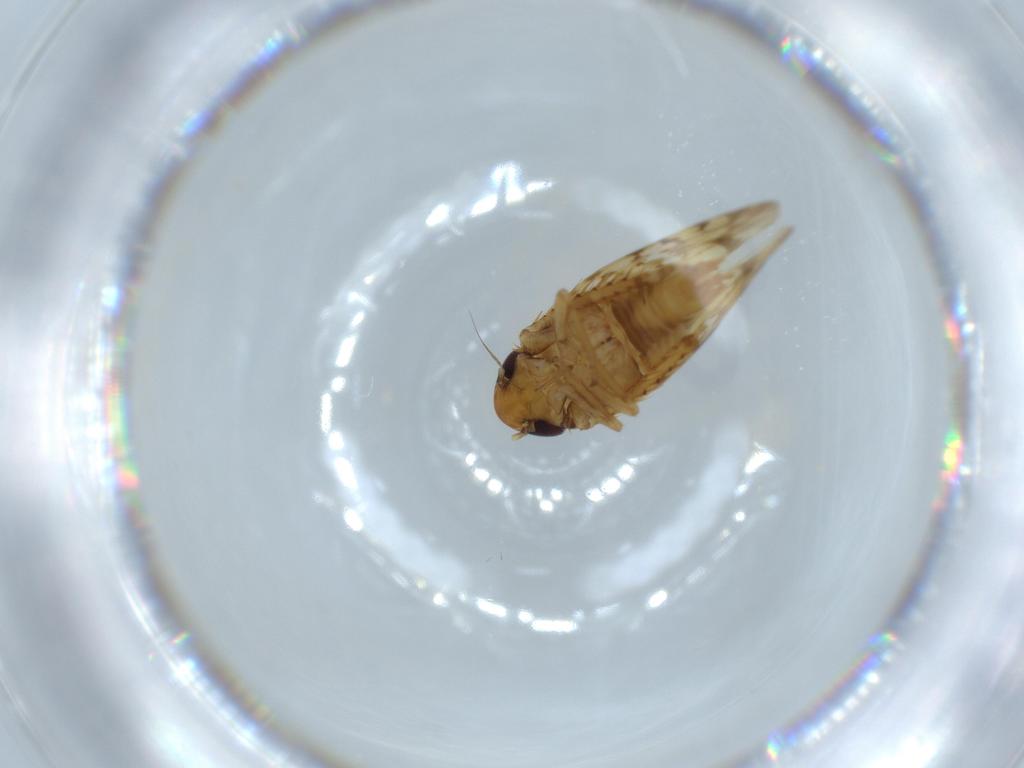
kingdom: Animalia
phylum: Arthropoda
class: Insecta
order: Hemiptera
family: Cicadellidae
